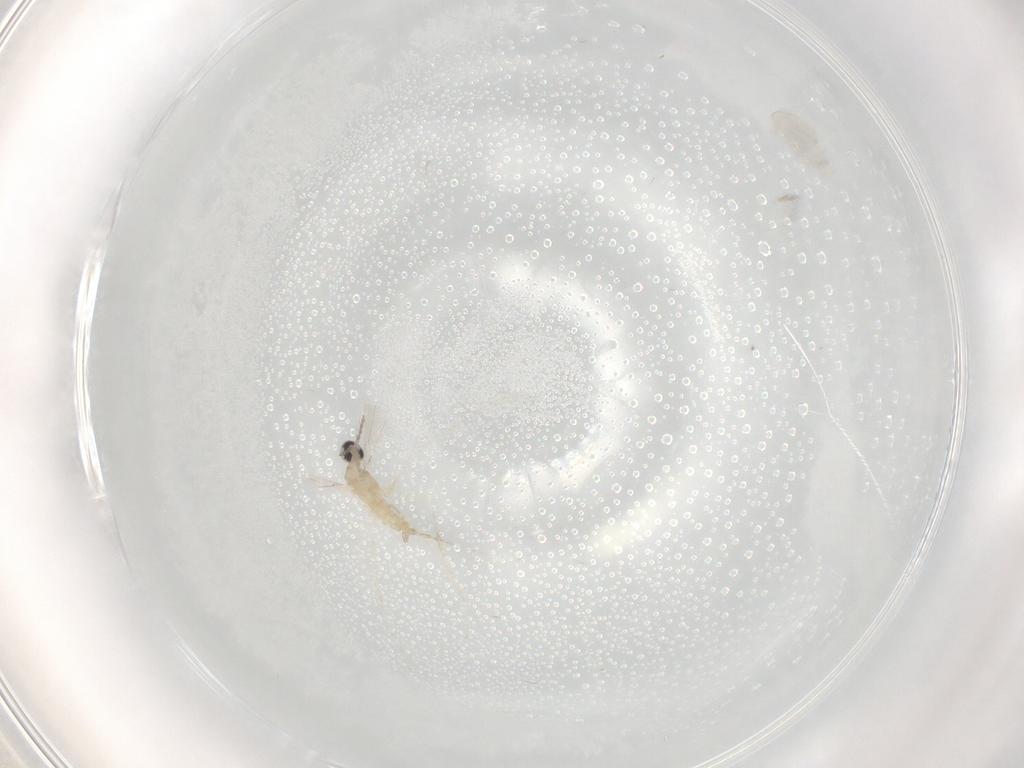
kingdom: Animalia
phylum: Arthropoda
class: Insecta
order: Diptera
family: Cecidomyiidae
